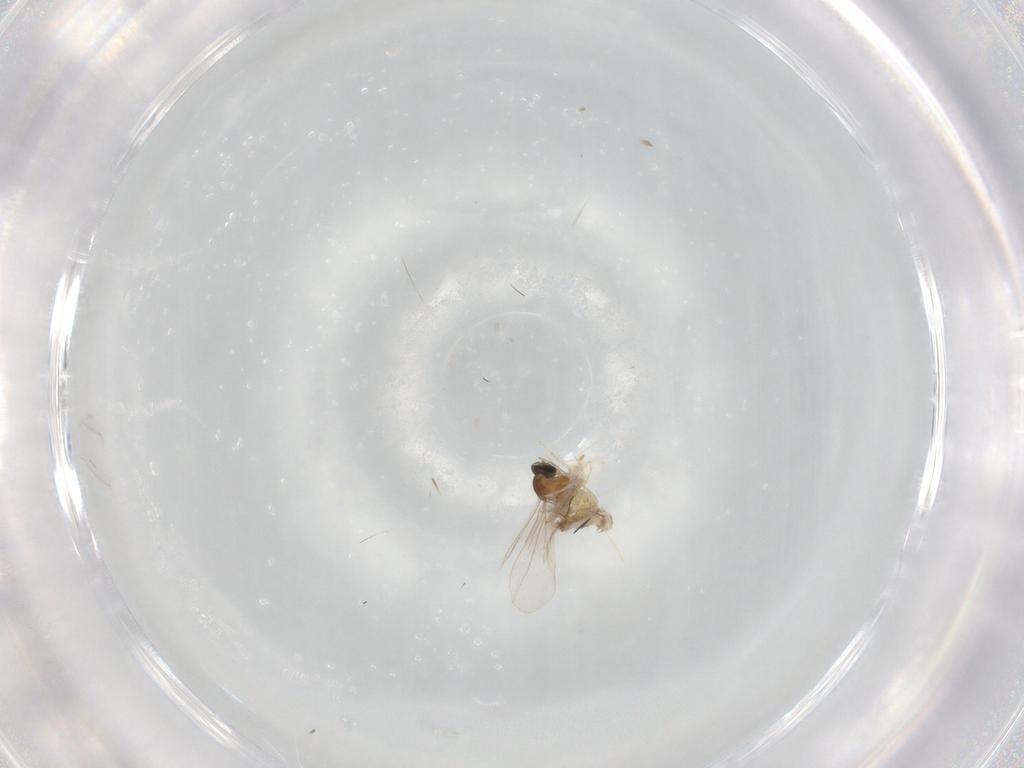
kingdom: Animalia
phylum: Arthropoda
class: Insecta
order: Diptera
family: Dolichopodidae
